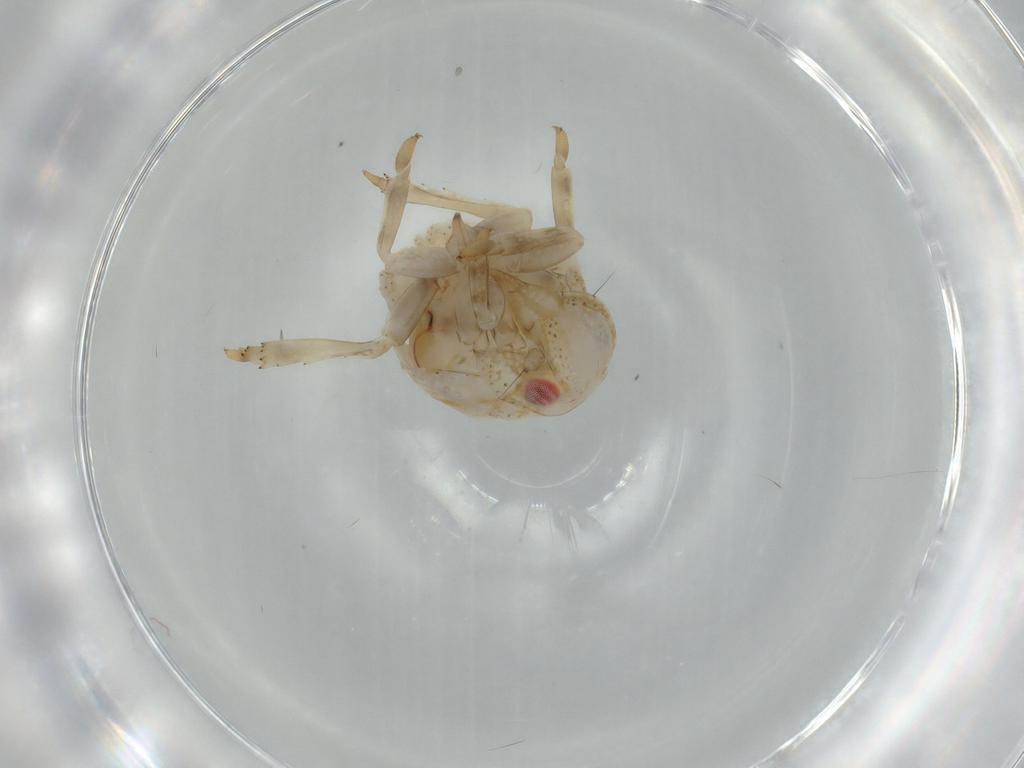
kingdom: Animalia
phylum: Arthropoda
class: Insecta
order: Hemiptera
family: Acanaloniidae
